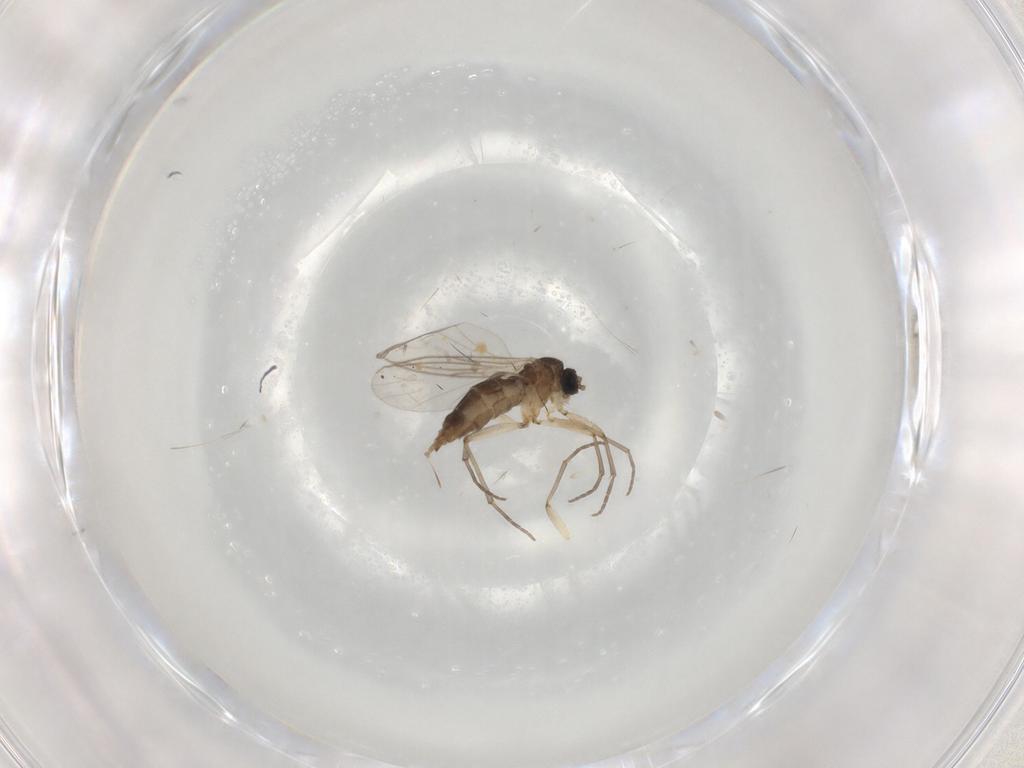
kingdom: Animalia
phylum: Arthropoda
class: Insecta
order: Diptera
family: Sciaridae
